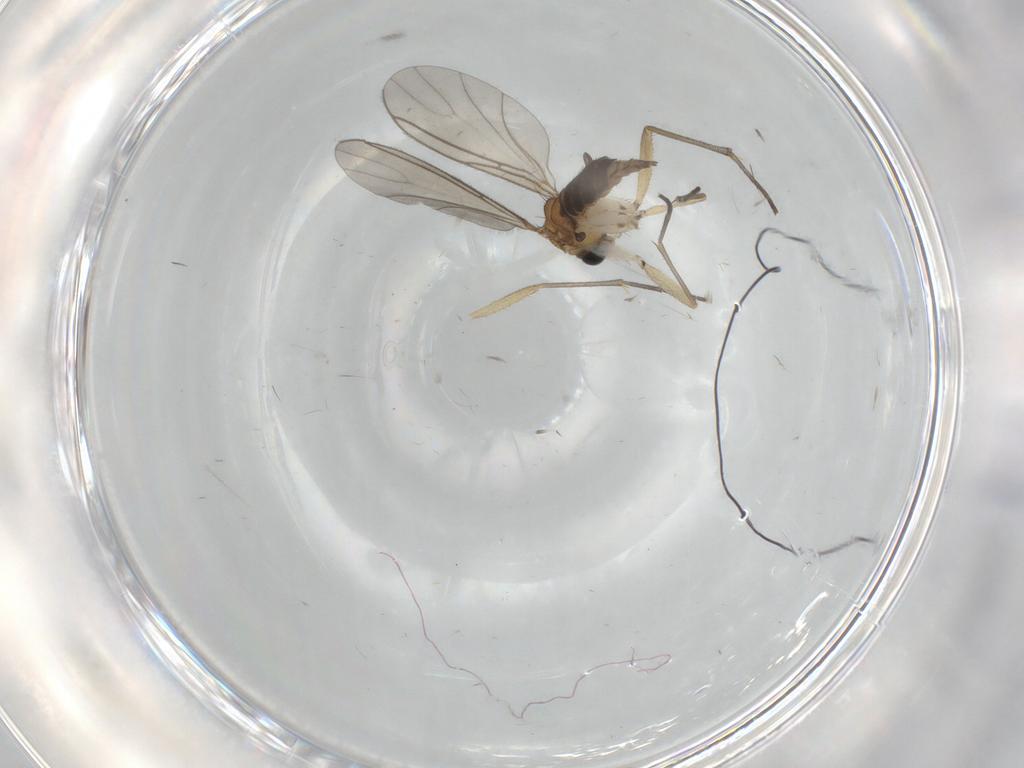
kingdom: Animalia
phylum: Arthropoda
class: Insecta
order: Diptera
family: Sciaridae
